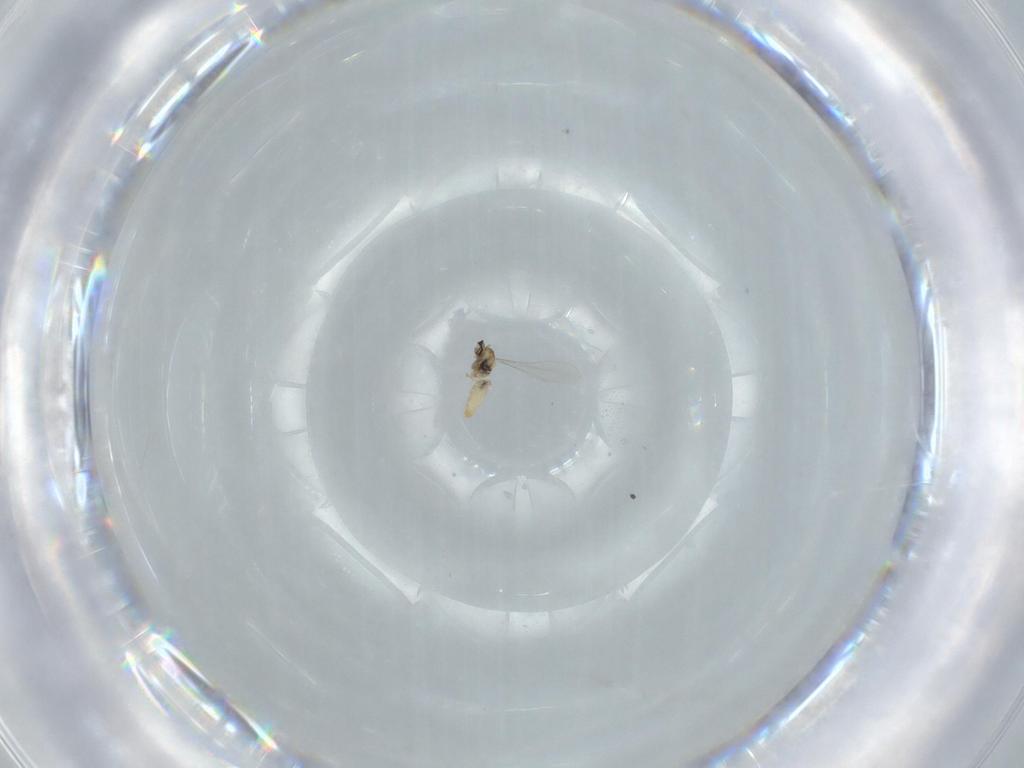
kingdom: Animalia
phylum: Arthropoda
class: Insecta
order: Diptera
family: Cecidomyiidae
